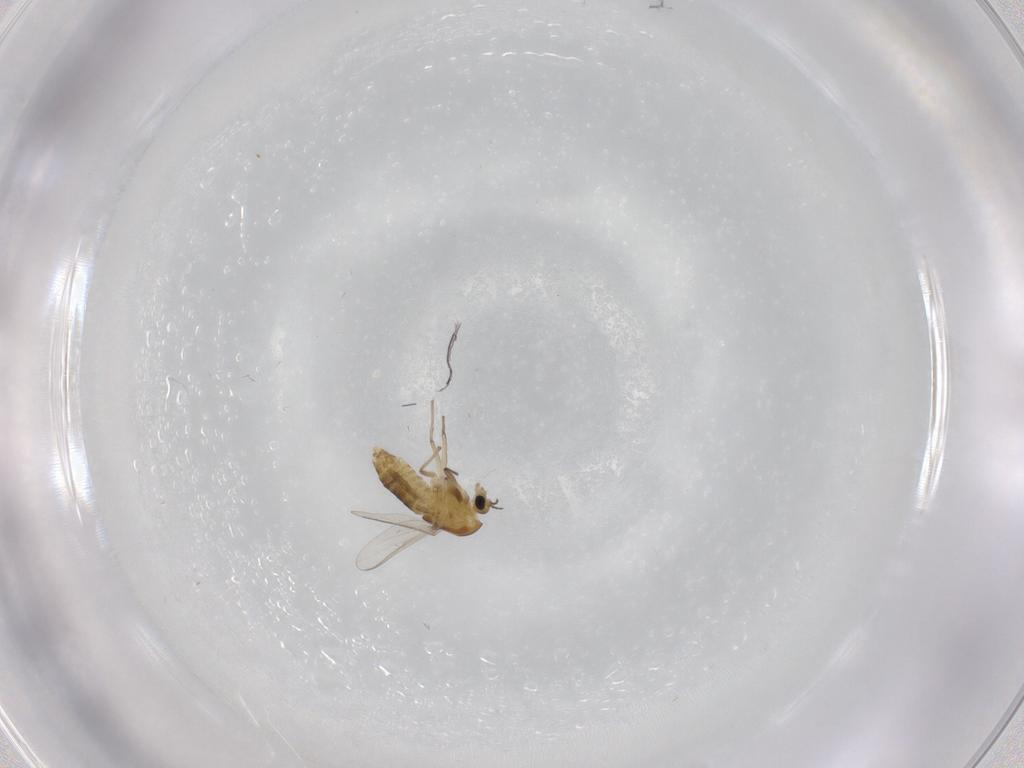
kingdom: Animalia
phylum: Arthropoda
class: Insecta
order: Diptera
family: Chironomidae
